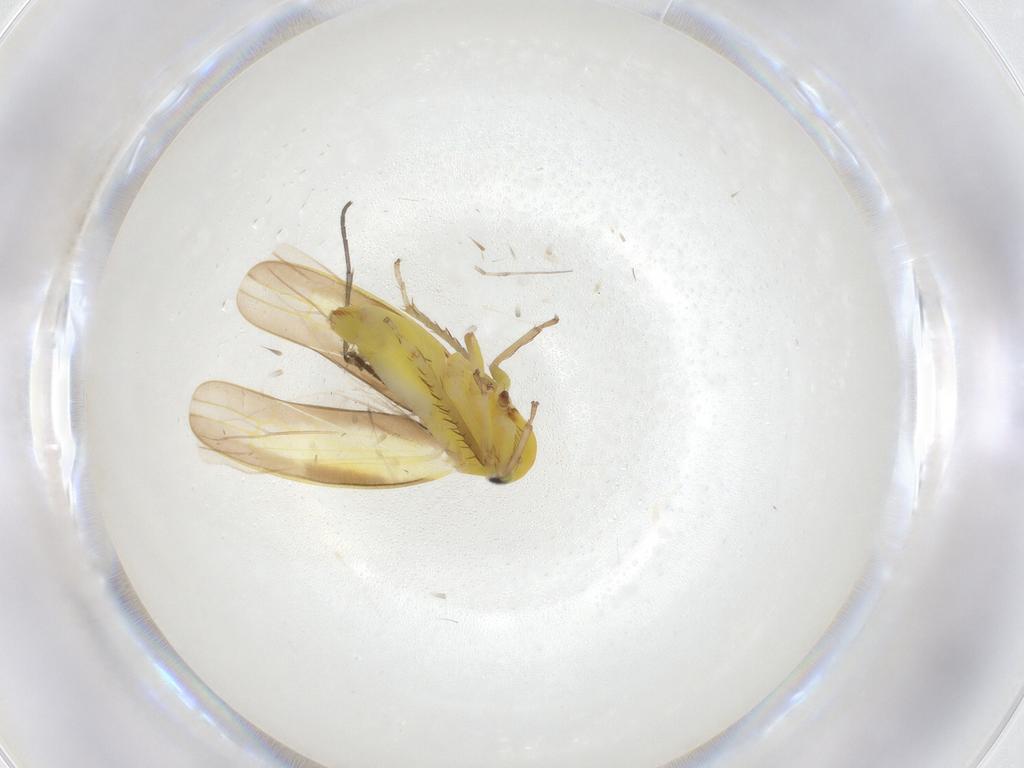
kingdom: Animalia
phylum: Arthropoda
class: Insecta
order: Hemiptera
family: Cicadellidae
